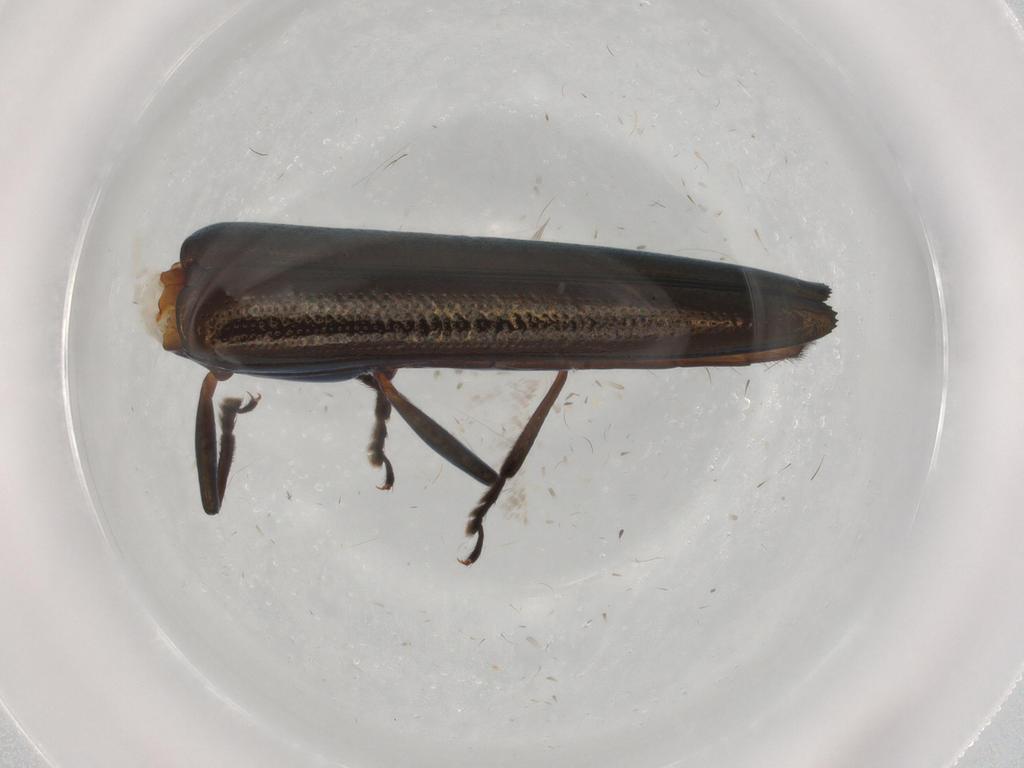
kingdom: Animalia
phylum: Arthropoda
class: Insecta
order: Coleoptera
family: Erotylidae
